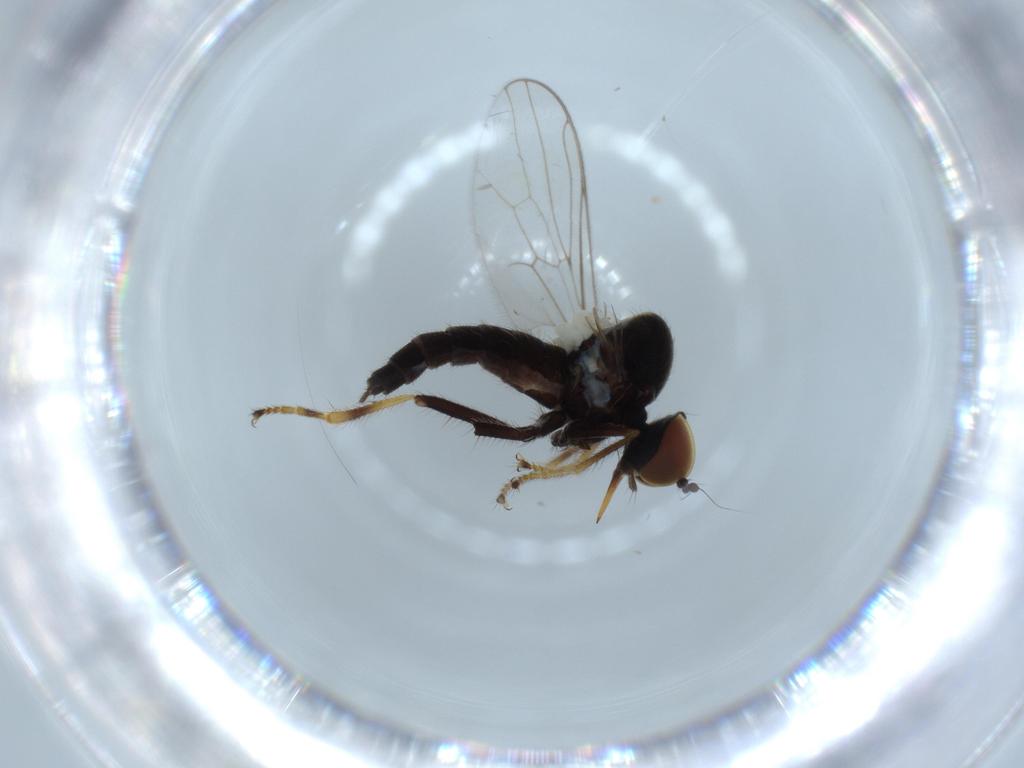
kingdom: Animalia
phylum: Arthropoda
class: Insecta
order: Diptera
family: Hybotidae
